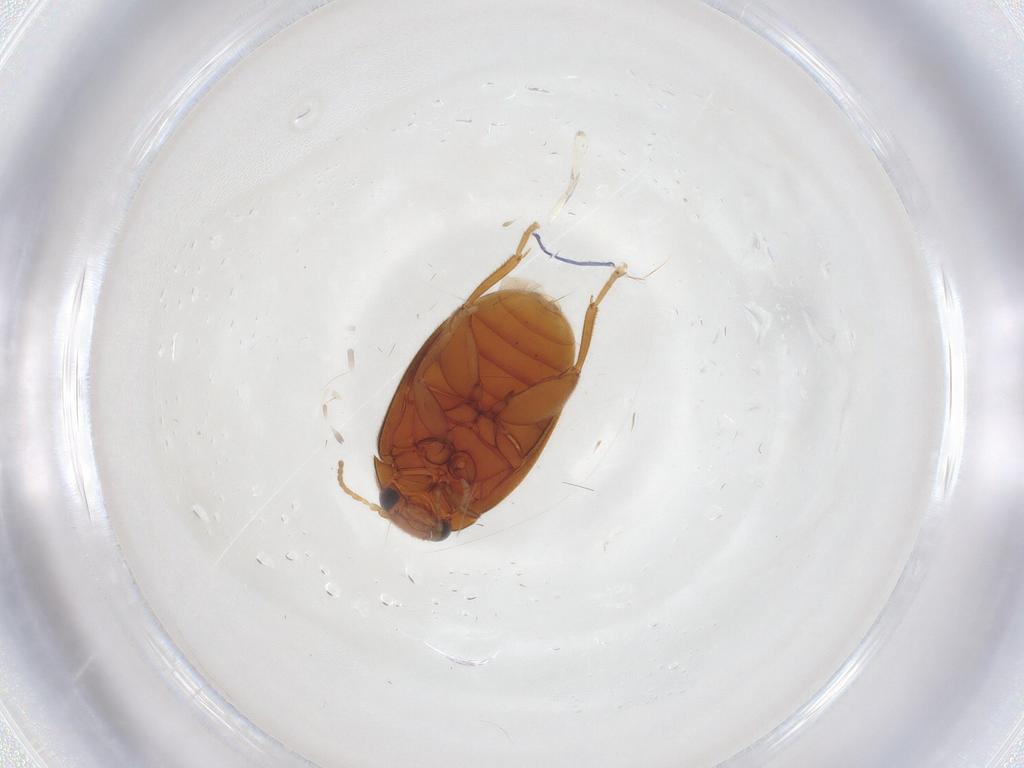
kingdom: Animalia
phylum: Arthropoda
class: Insecta
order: Coleoptera
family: Scirtidae
